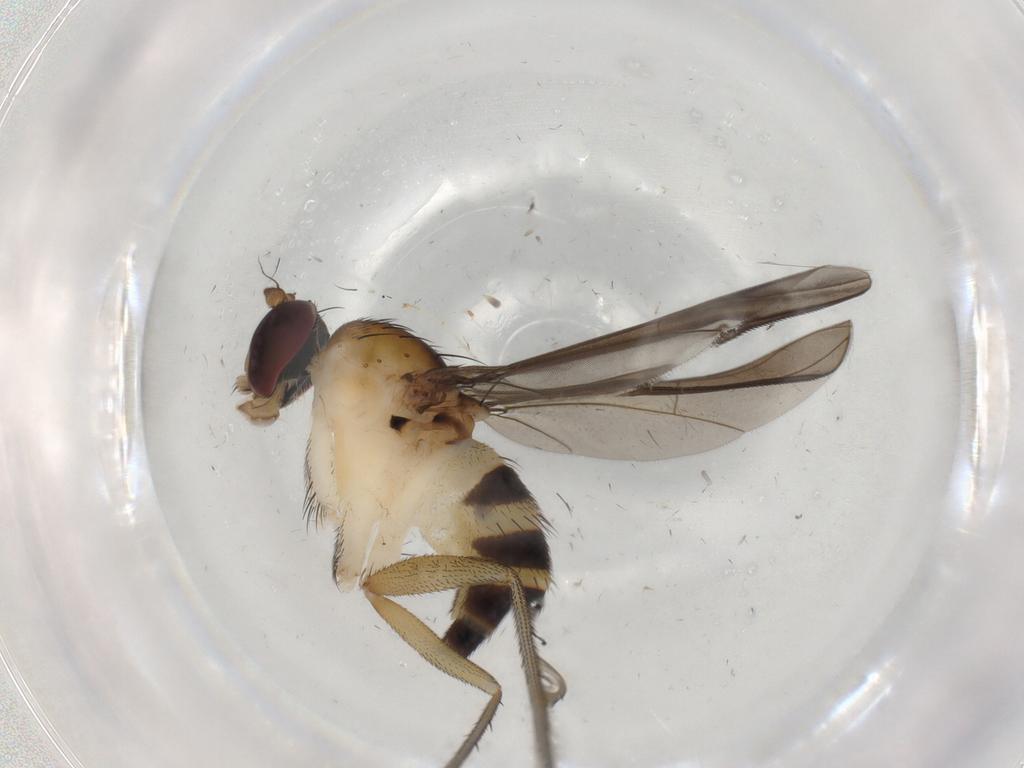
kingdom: Animalia
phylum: Arthropoda
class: Insecta
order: Diptera
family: Dolichopodidae
